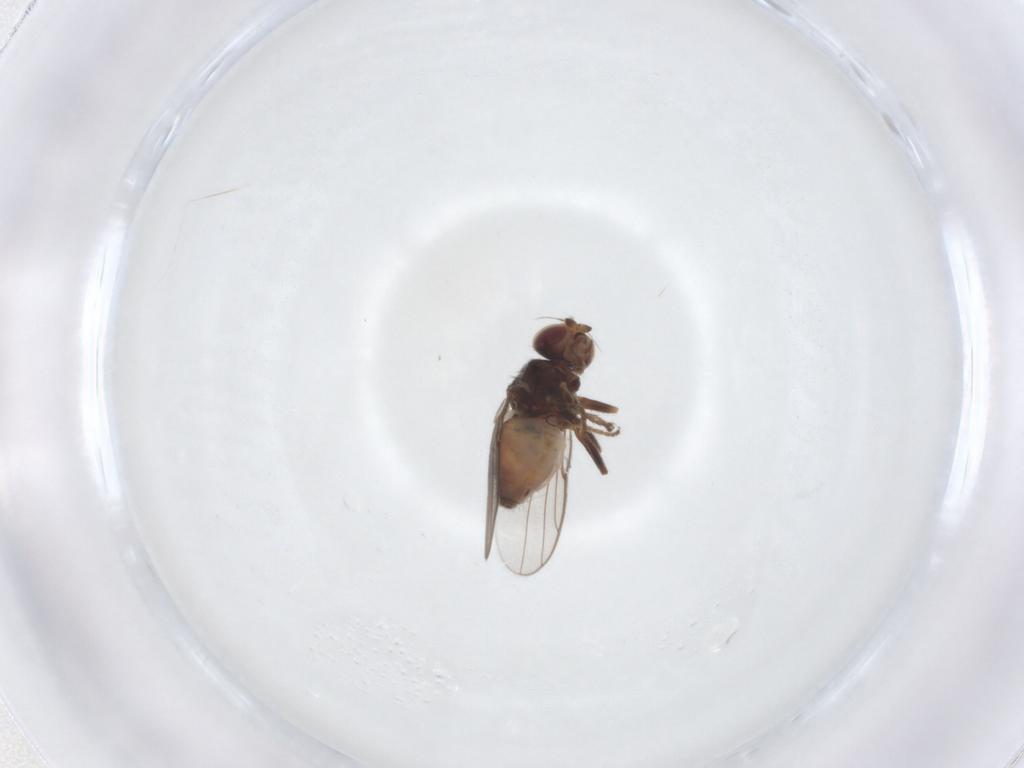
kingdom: Animalia
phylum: Arthropoda
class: Insecta
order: Diptera
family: Chloropidae
